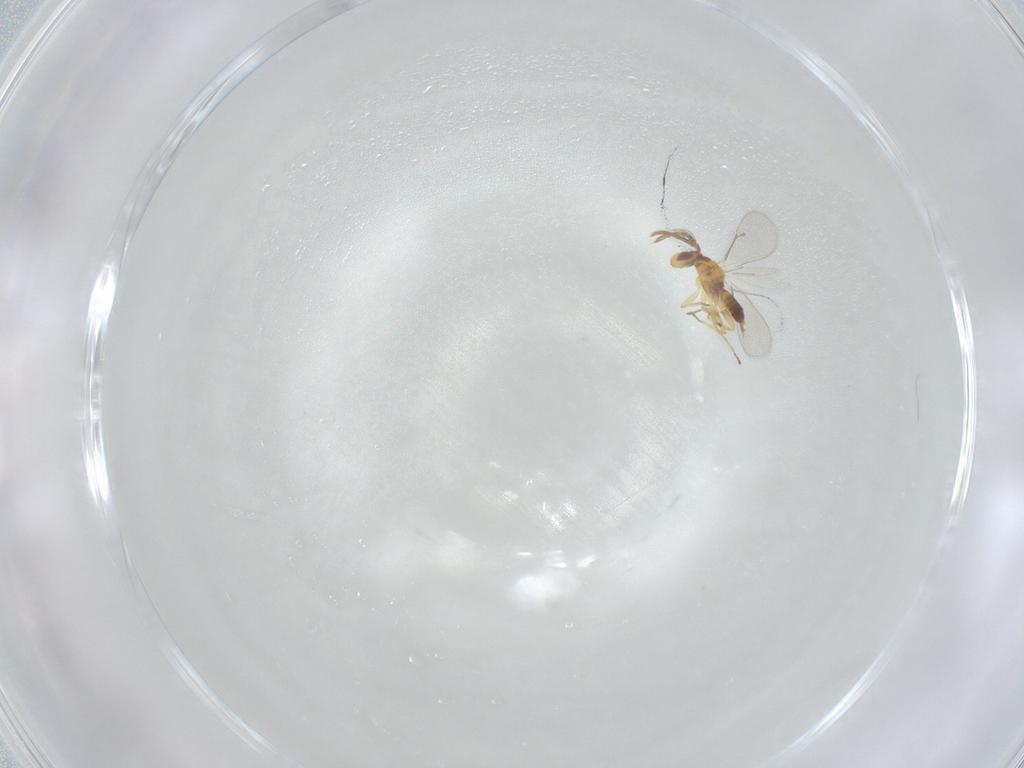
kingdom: Animalia
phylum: Arthropoda
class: Insecta
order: Hymenoptera
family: Eulophidae
